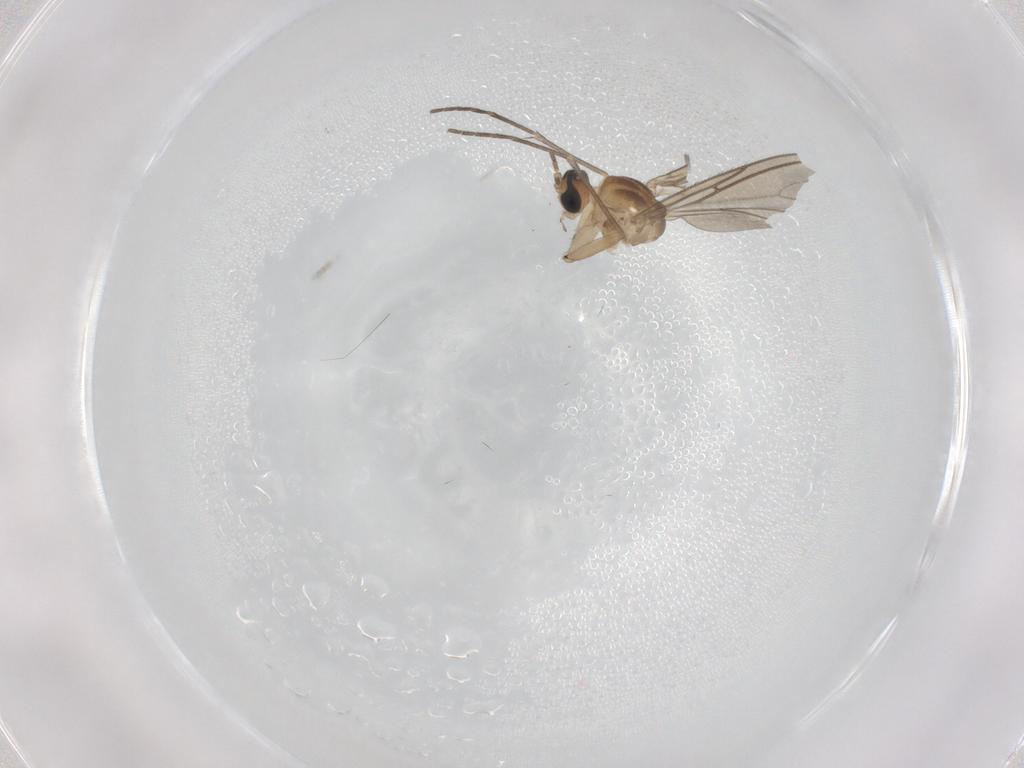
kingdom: Animalia
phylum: Arthropoda
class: Insecta
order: Diptera
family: Sciaridae
